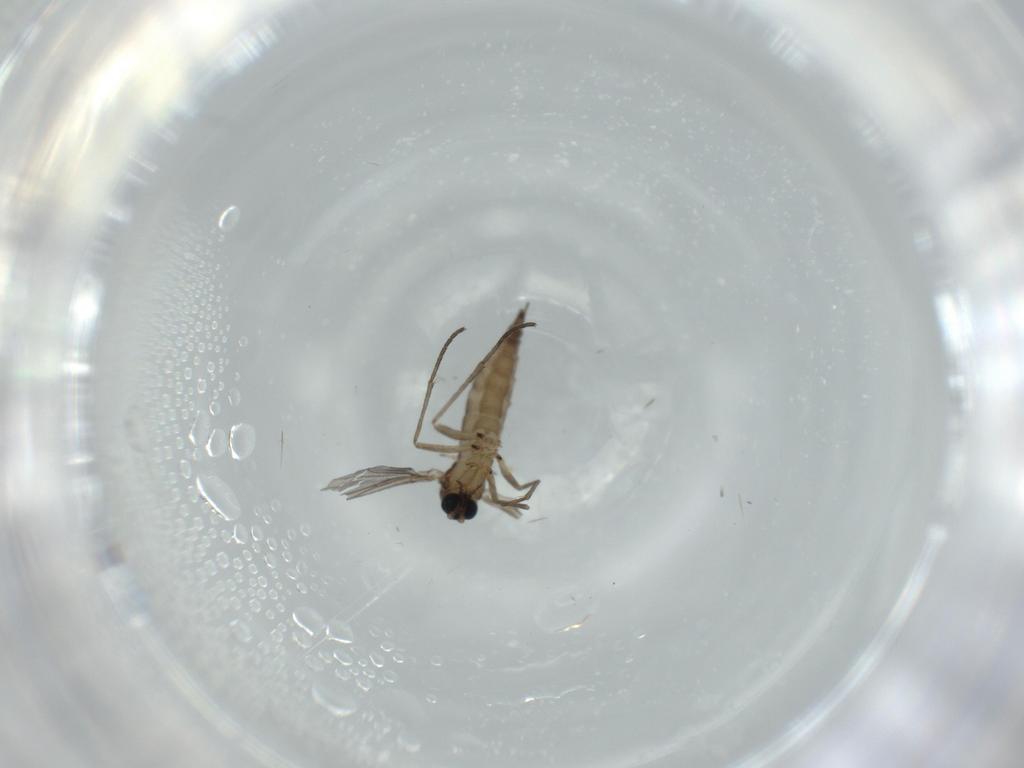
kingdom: Animalia
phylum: Arthropoda
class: Insecta
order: Diptera
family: Sciaridae
